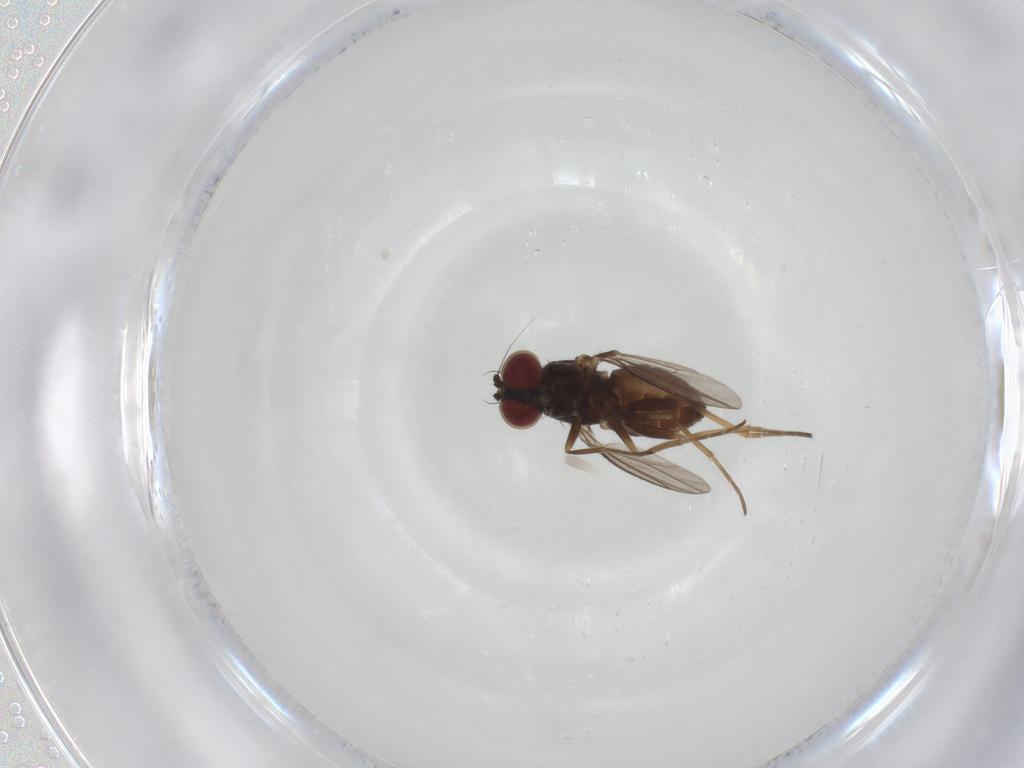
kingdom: Animalia
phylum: Arthropoda
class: Insecta
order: Diptera
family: Dolichopodidae
